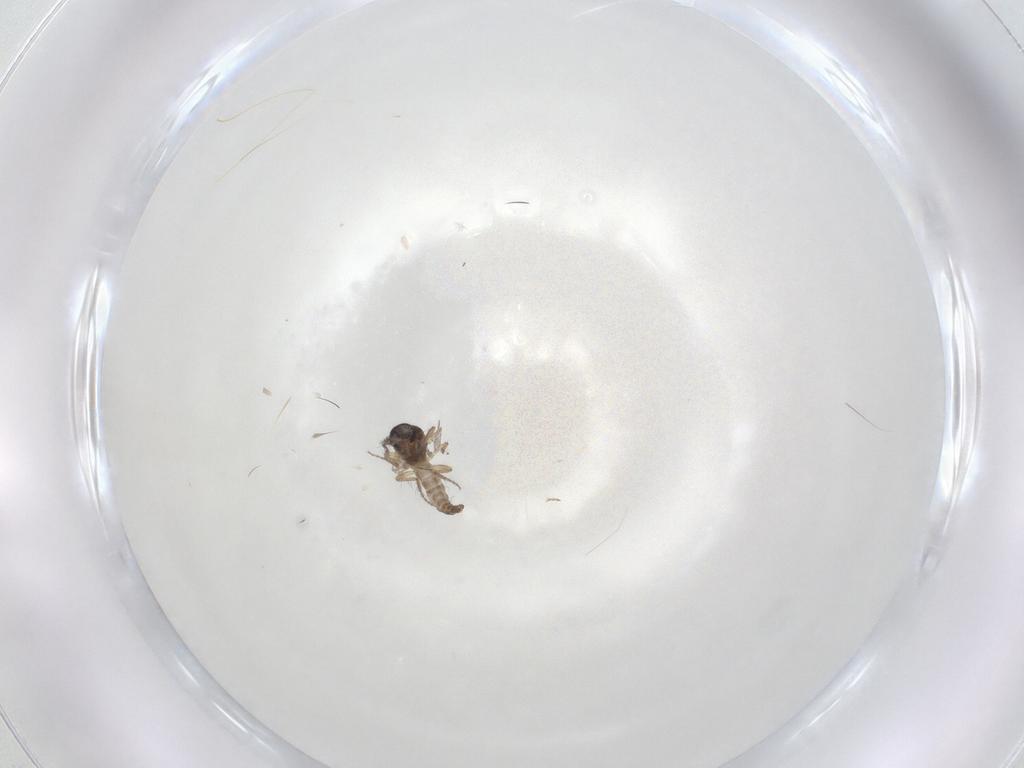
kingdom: Animalia
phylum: Arthropoda
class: Insecta
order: Diptera
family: Ceratopogonidae
